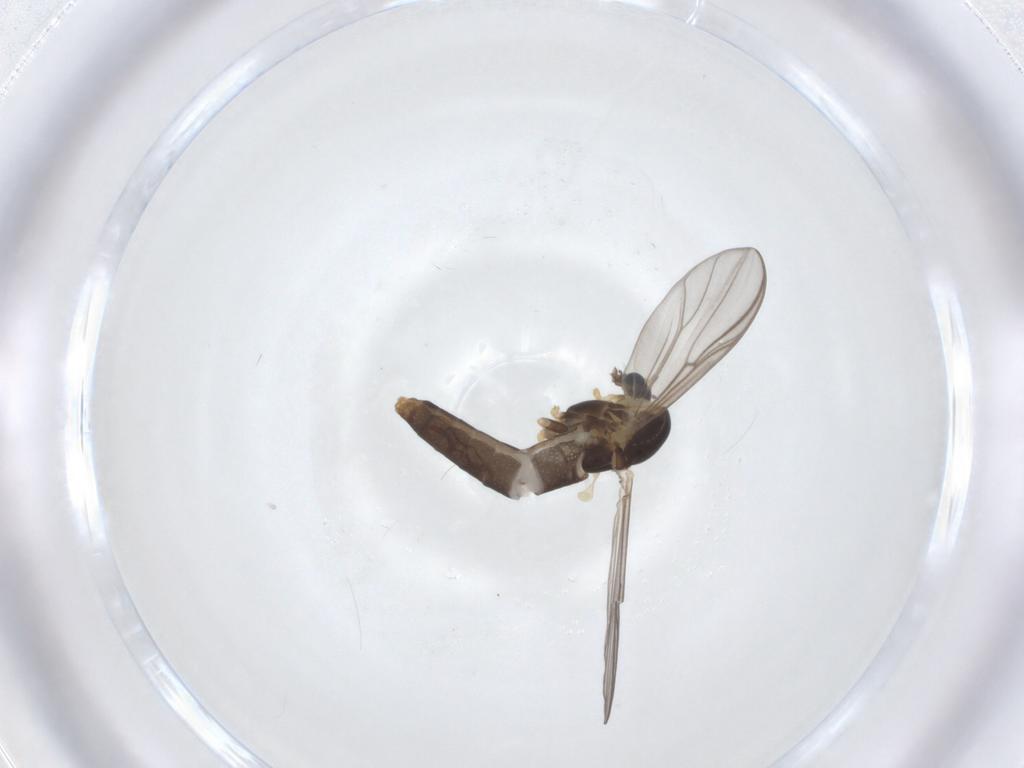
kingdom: Animalia
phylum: Arthropoda
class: Insecta
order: Diptera
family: Chironomidae
